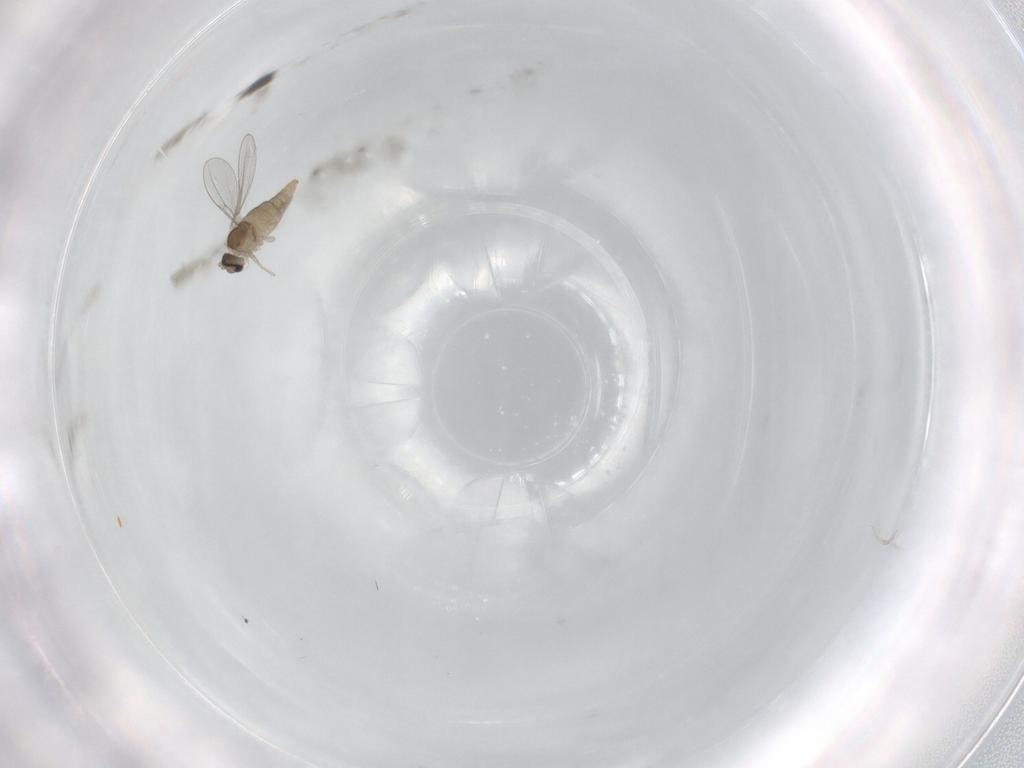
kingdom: Animalia
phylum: Arthropoda
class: Insecta
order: Diptera
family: Cecidomyiidae
